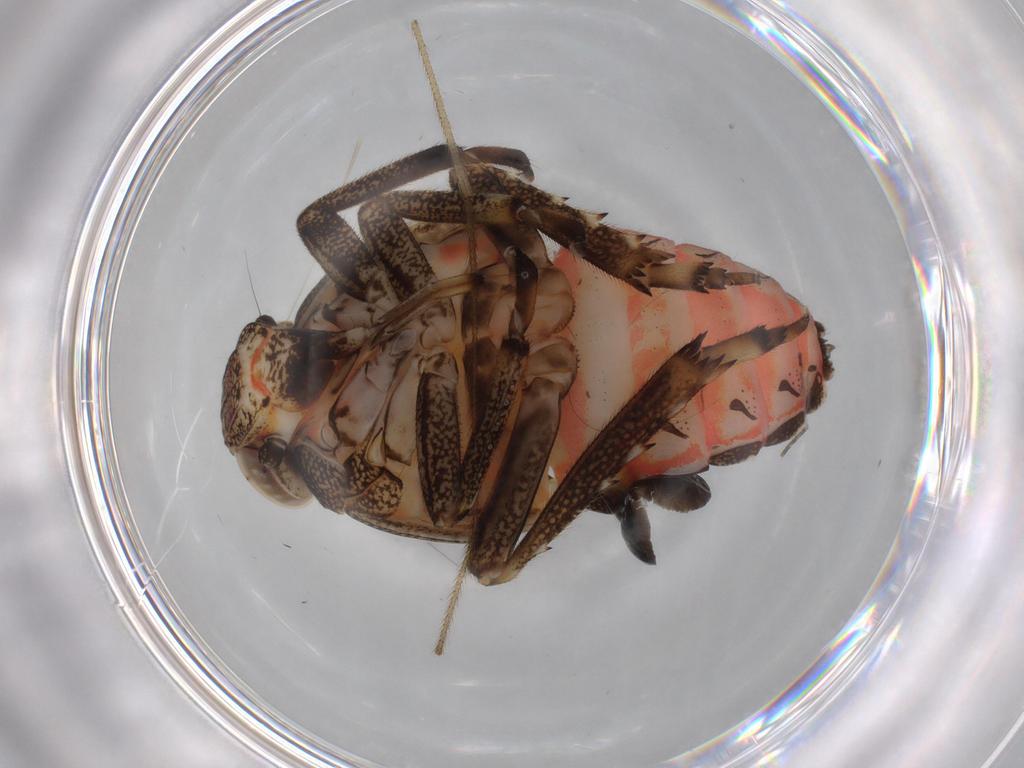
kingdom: Animalia
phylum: Arthropoda
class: Insecta
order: Hemiptera
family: Issidae
